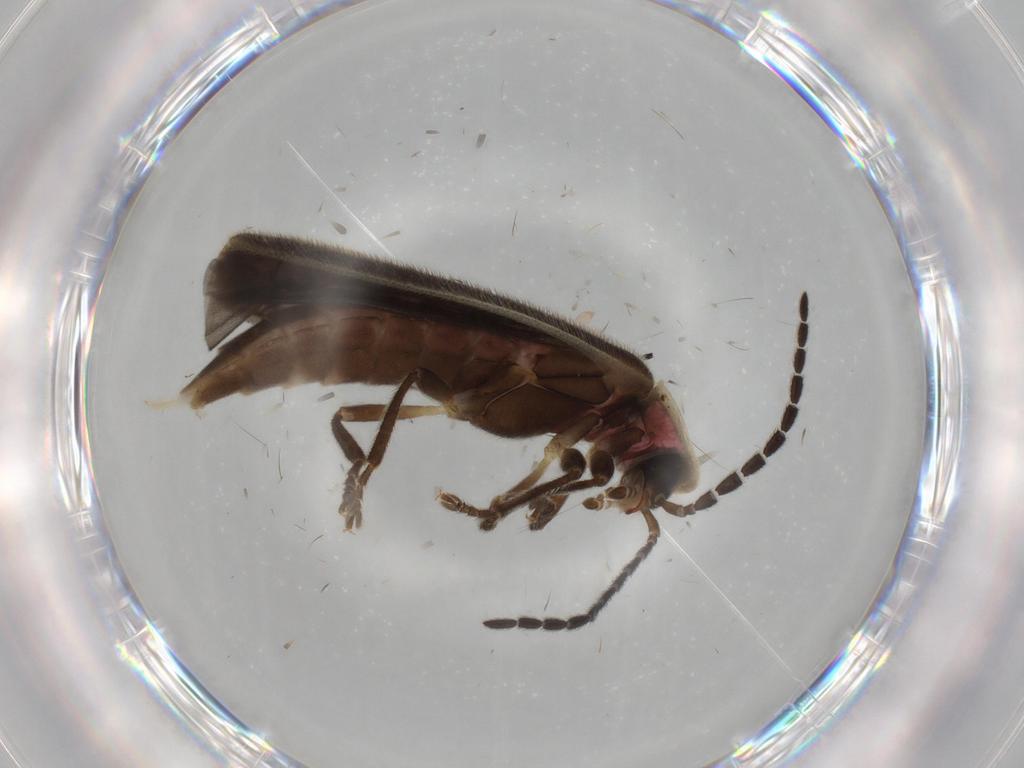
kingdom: Animalia
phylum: Arthropoda
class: Insecta
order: Coleoptera
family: Lampyridae
